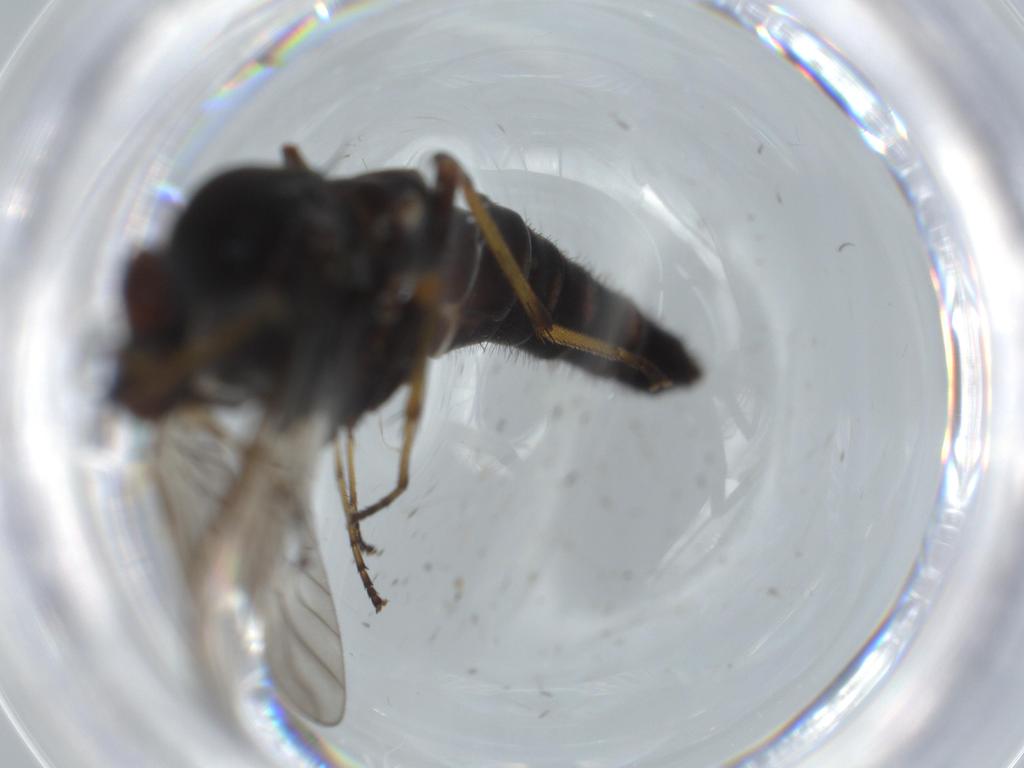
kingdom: Animalia
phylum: Arthropoda
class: Insecta
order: Diptera
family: Cecidomyiidae
